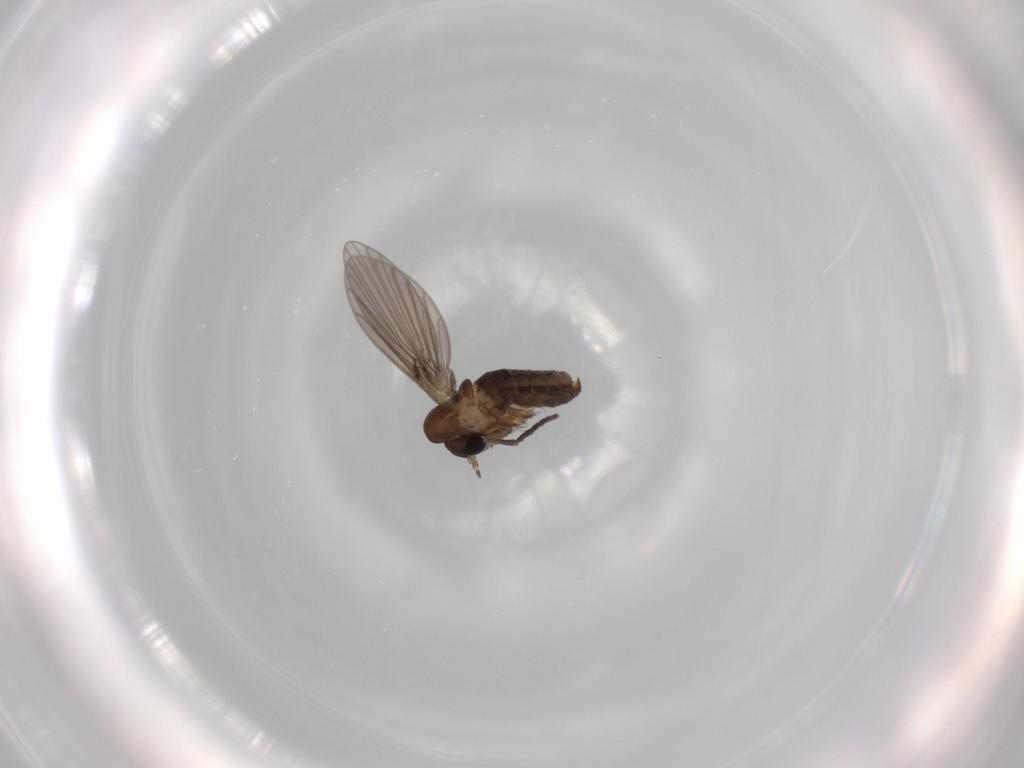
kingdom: Animalia
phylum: Arthropoda
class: Insecta
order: Diptera
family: Psychodidae
